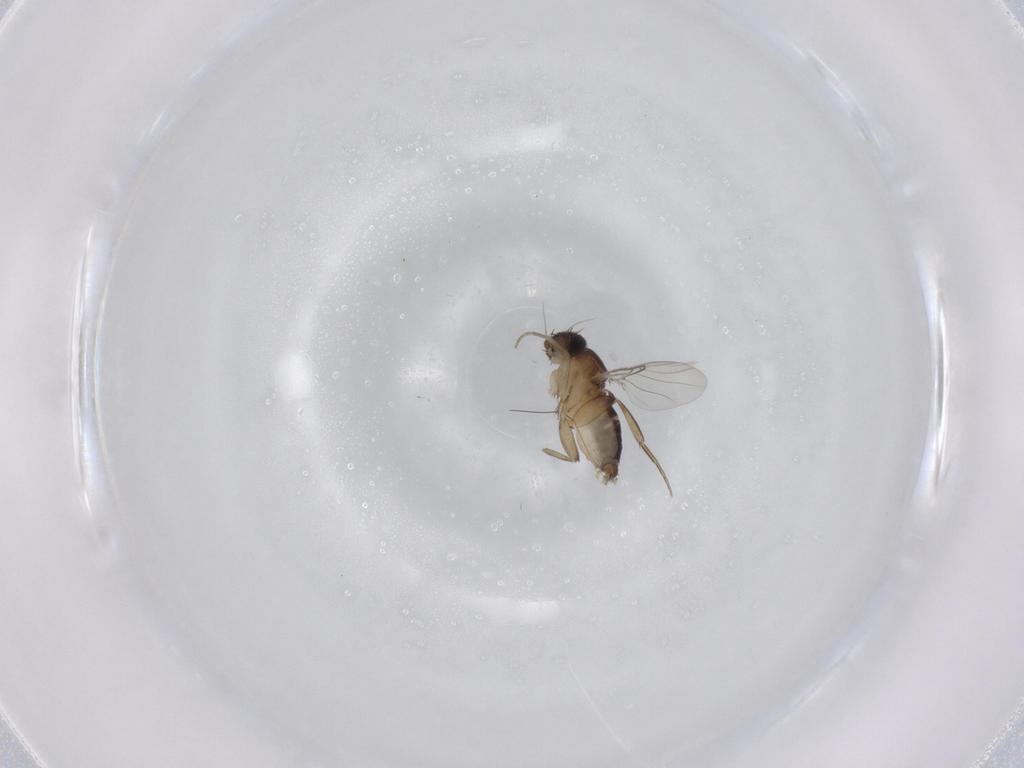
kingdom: Animalia
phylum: Arthropoda
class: Insecta
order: Diptera
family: Phoridae
